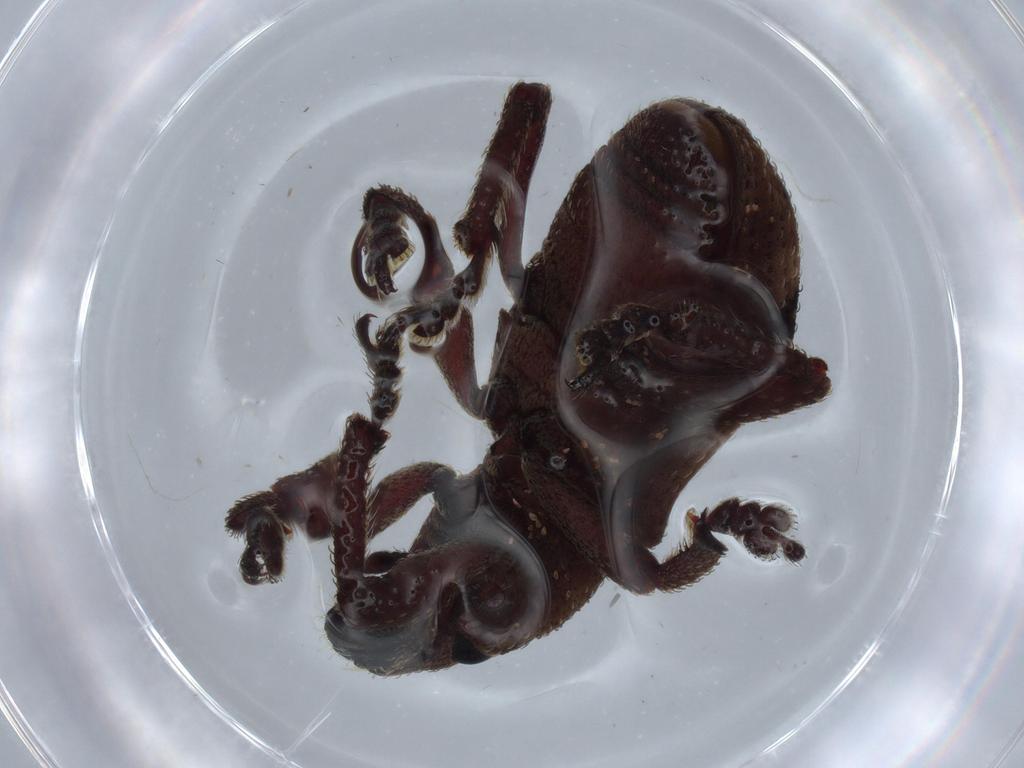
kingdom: Animalia
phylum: Arthropoda
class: Insecta
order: Coleoptera
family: Curculionidae
